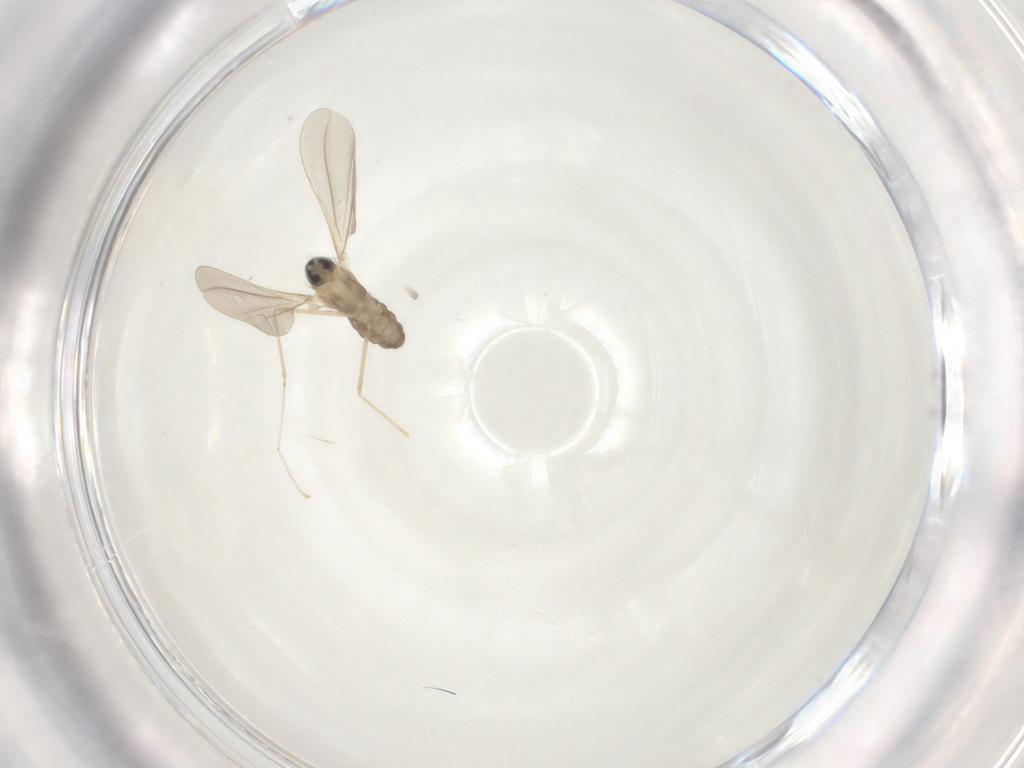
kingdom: Animalia
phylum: Arthropoda
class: Insecta
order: Diptera
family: Cecidomyiidae
